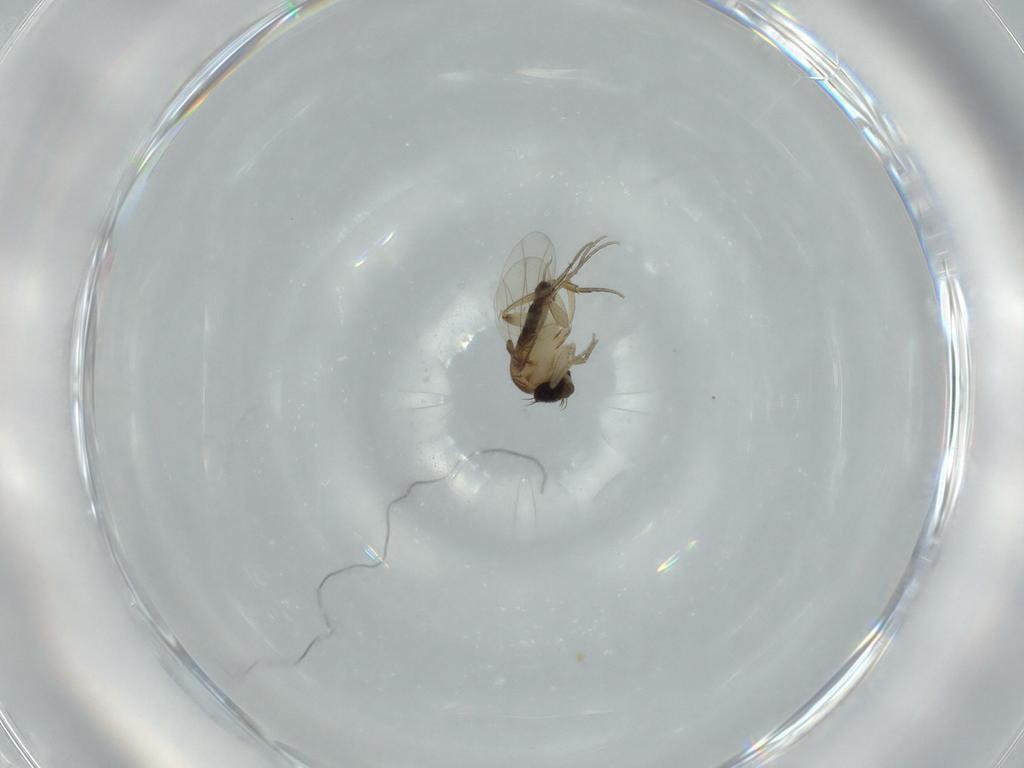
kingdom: Animalia
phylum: Arthropoda
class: Insecta
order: Diptera
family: Phoridae
